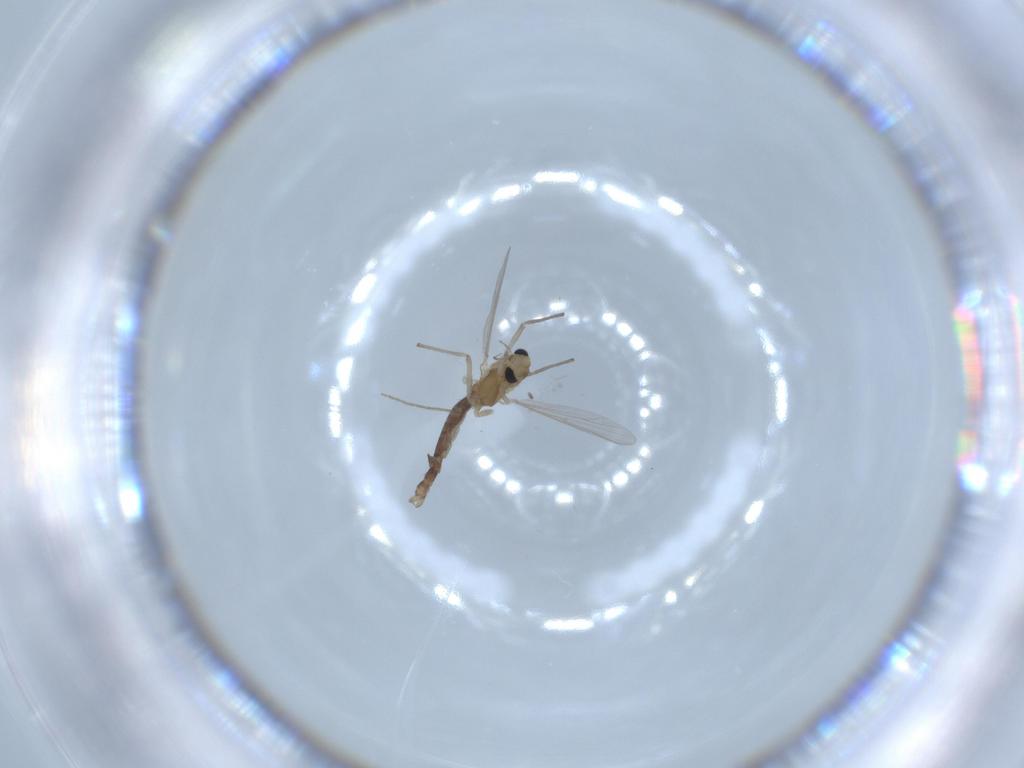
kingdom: Animalia
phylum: Arthropoda
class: Insecta
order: Diptera
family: Chironomidae
